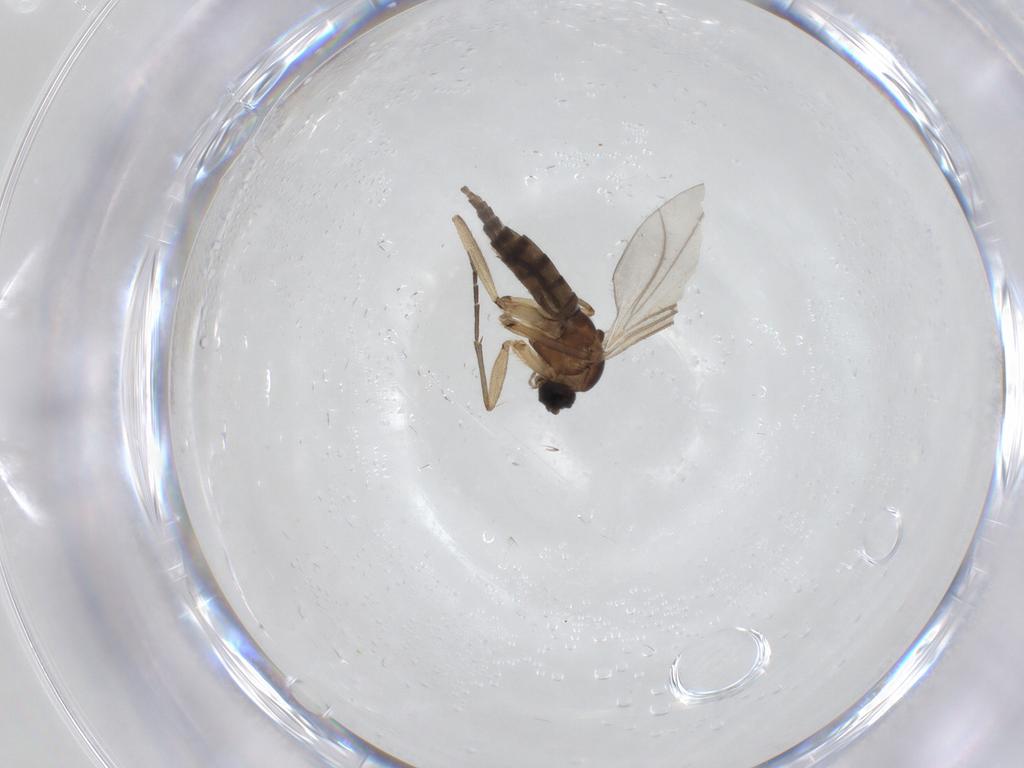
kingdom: Animalia
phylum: Arthropoda
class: Insecta
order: Diptera
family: Sciaridae
